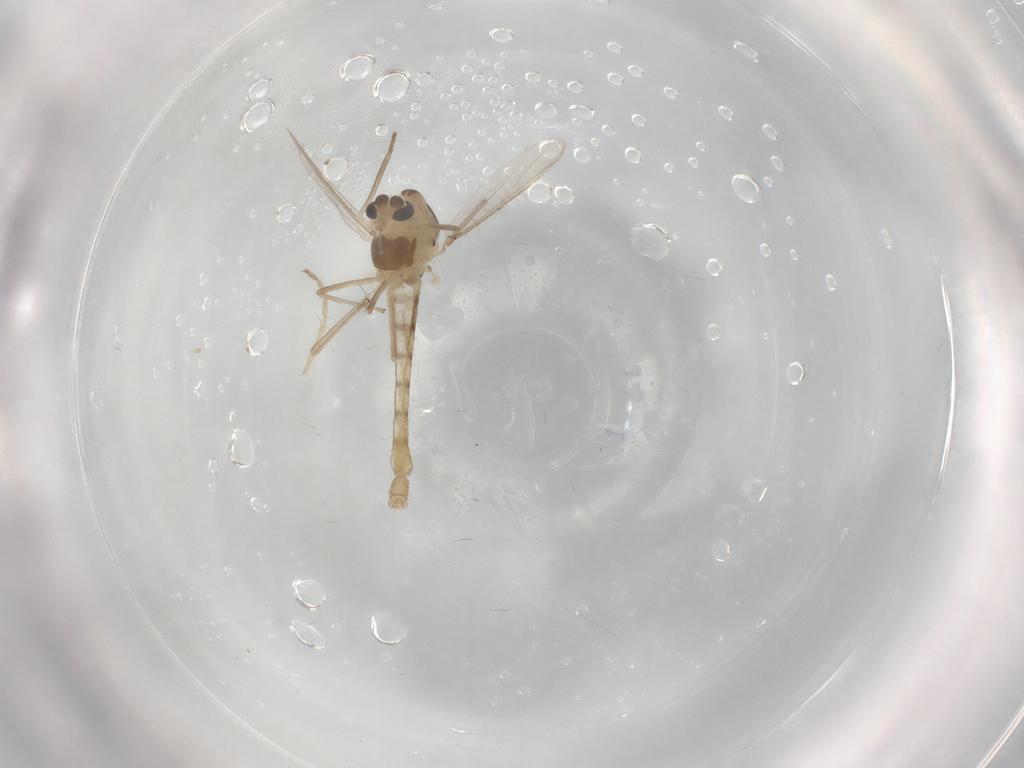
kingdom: Animalia
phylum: Arthropoda
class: Insecta
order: Diptera
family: Chironomidae
